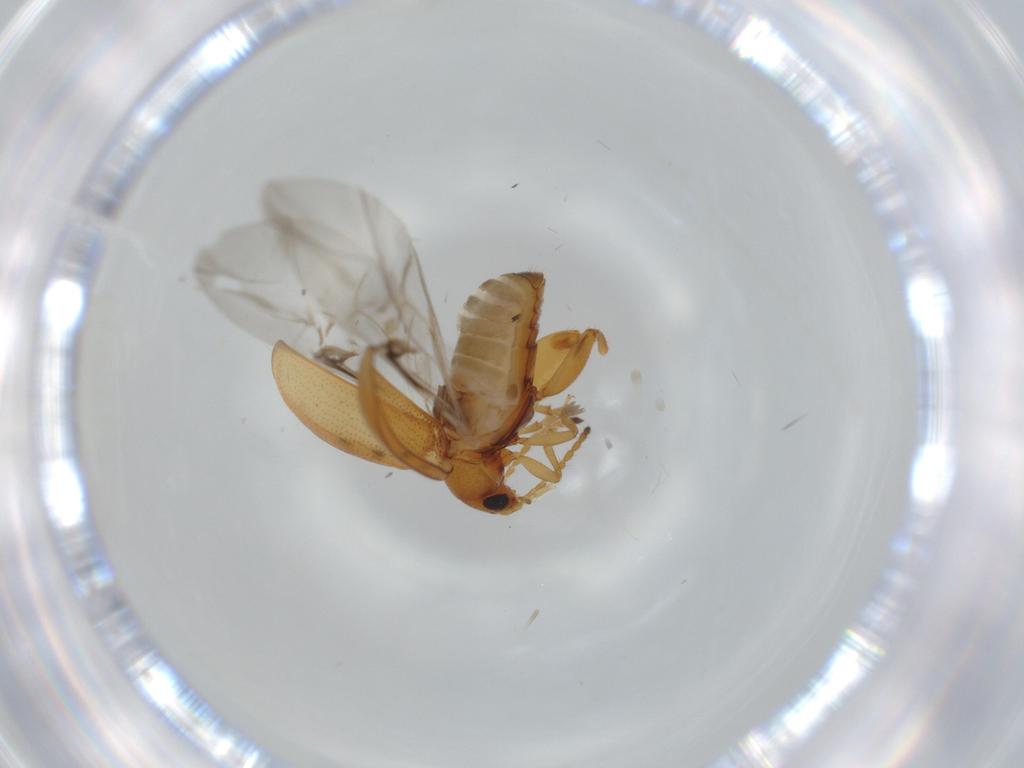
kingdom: Animalia
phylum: Arthropoda
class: Insecta
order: Coleoptera
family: Chrysomelidae
